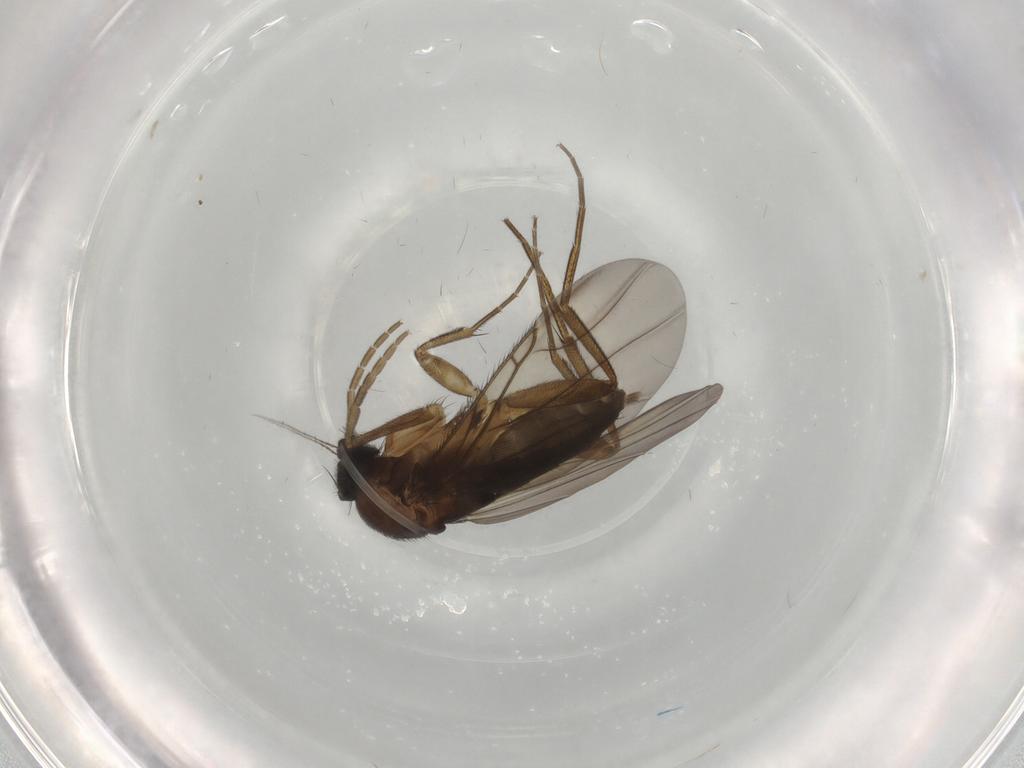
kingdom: Animalia
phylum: Arthropoda
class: Insecta
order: Diptera
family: Phoridae
